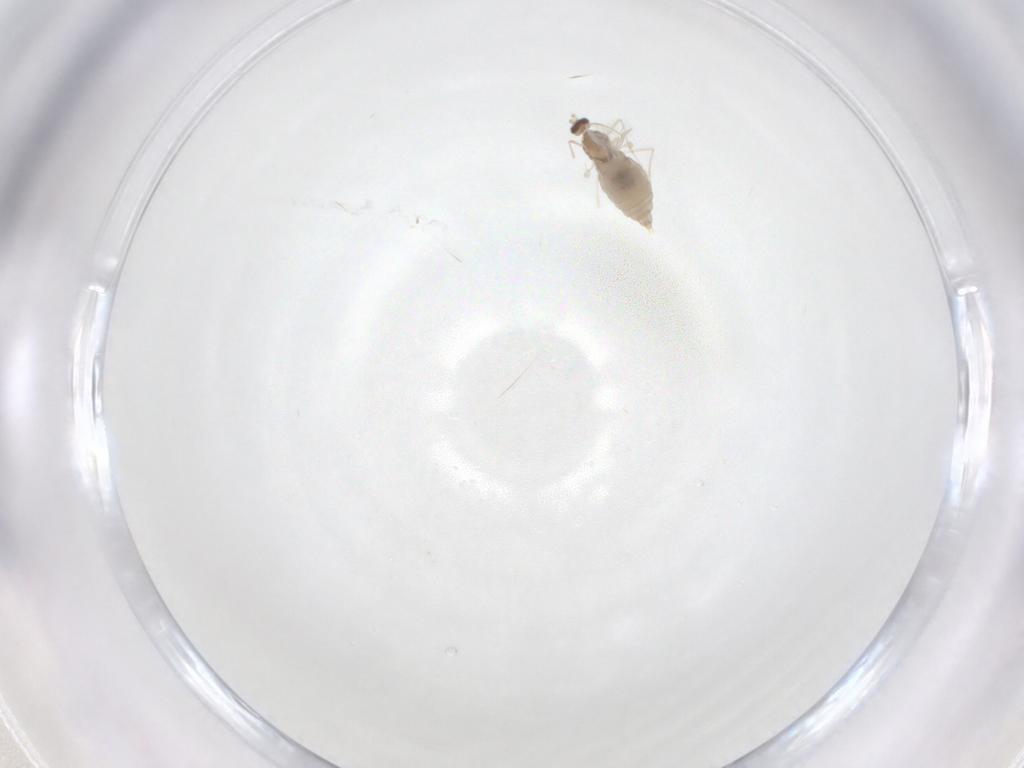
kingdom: Animalia
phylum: Arthropoda
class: Insecta
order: Diptera
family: Cecidomyiidae
